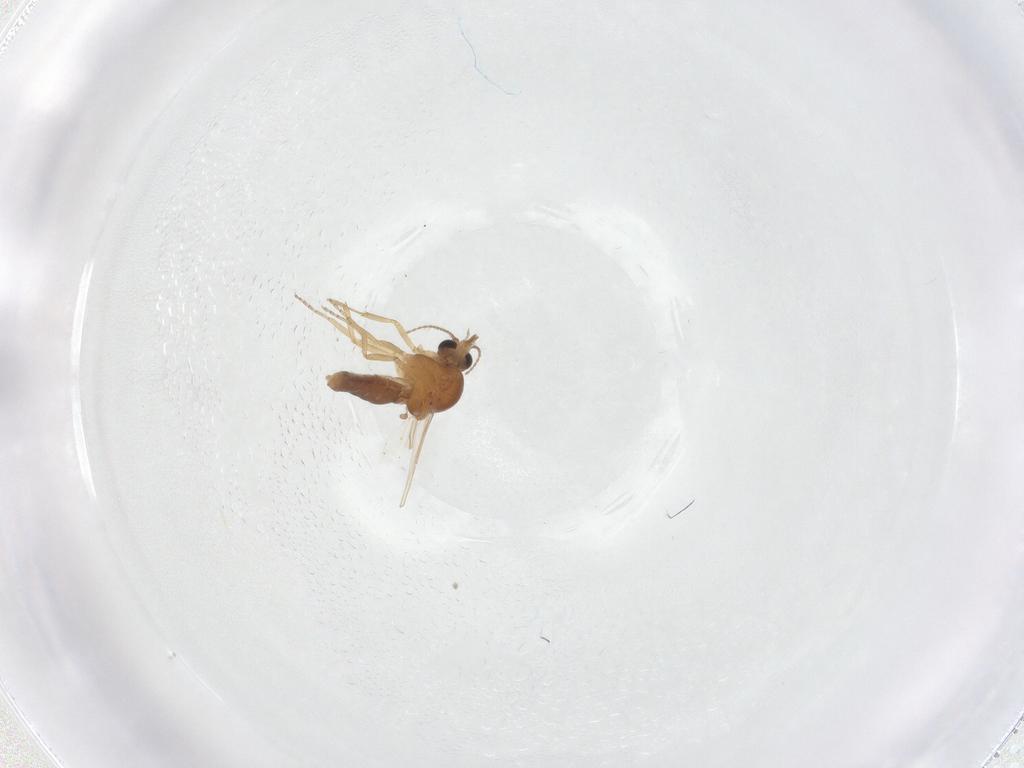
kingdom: Animalia
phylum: Arthropoda
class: Insecta
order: Diptera
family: Ceratopogonidae
